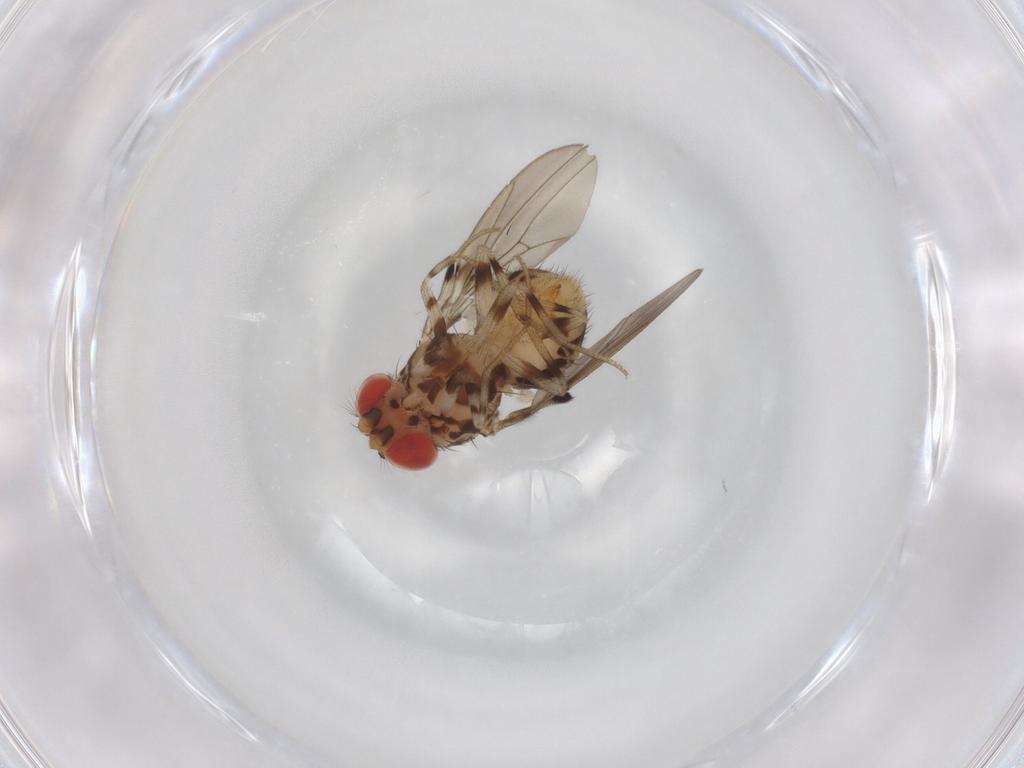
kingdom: Animalia
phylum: Arthropoda
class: Insecta
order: Diptera
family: Drosophilidae
